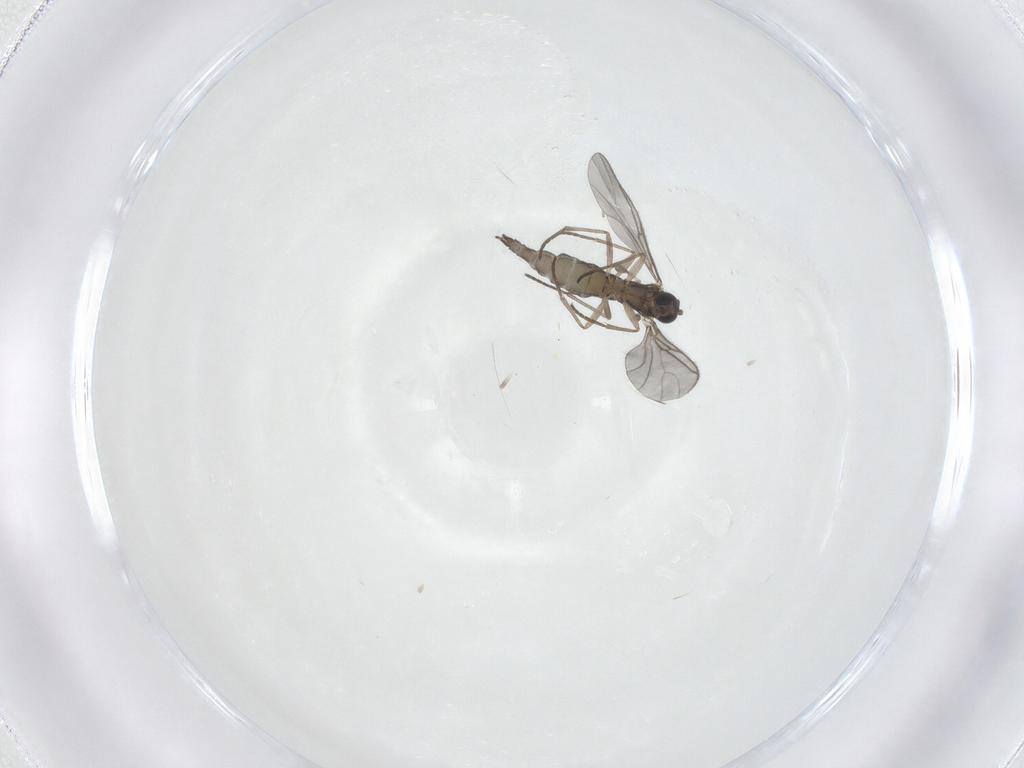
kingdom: Animalia
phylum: Arthropoda
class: Insecta
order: Diptera
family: Sciaridae
